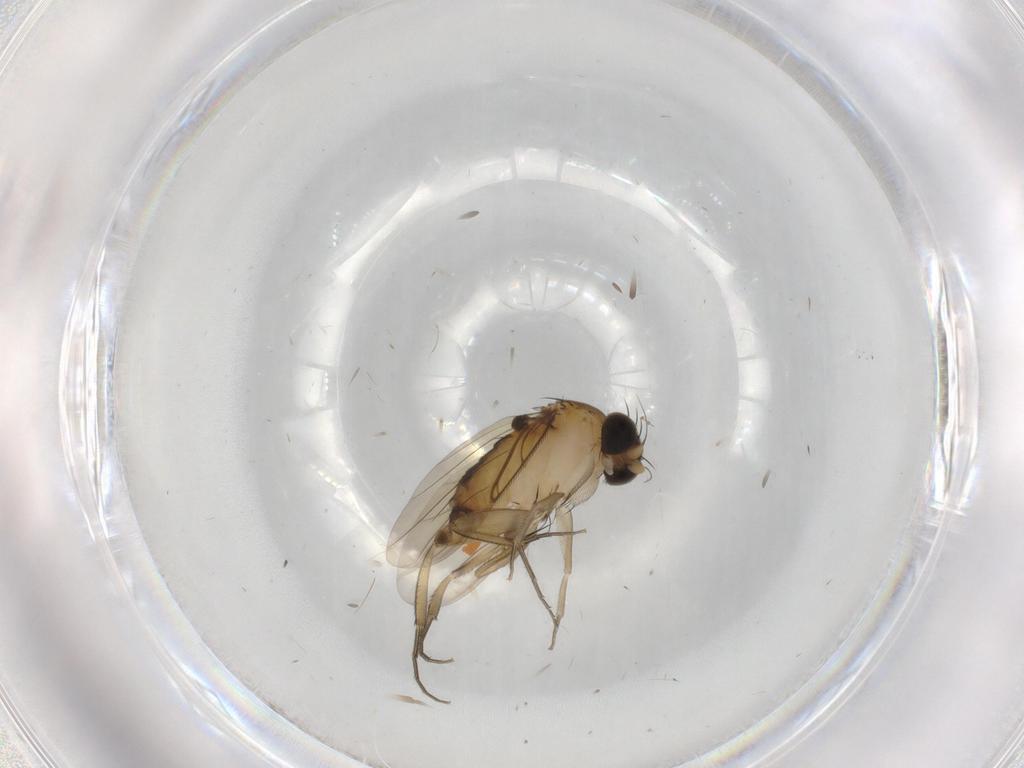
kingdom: Animalia
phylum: Arthropoda
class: Insecta
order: Diptera
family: Phoridae
